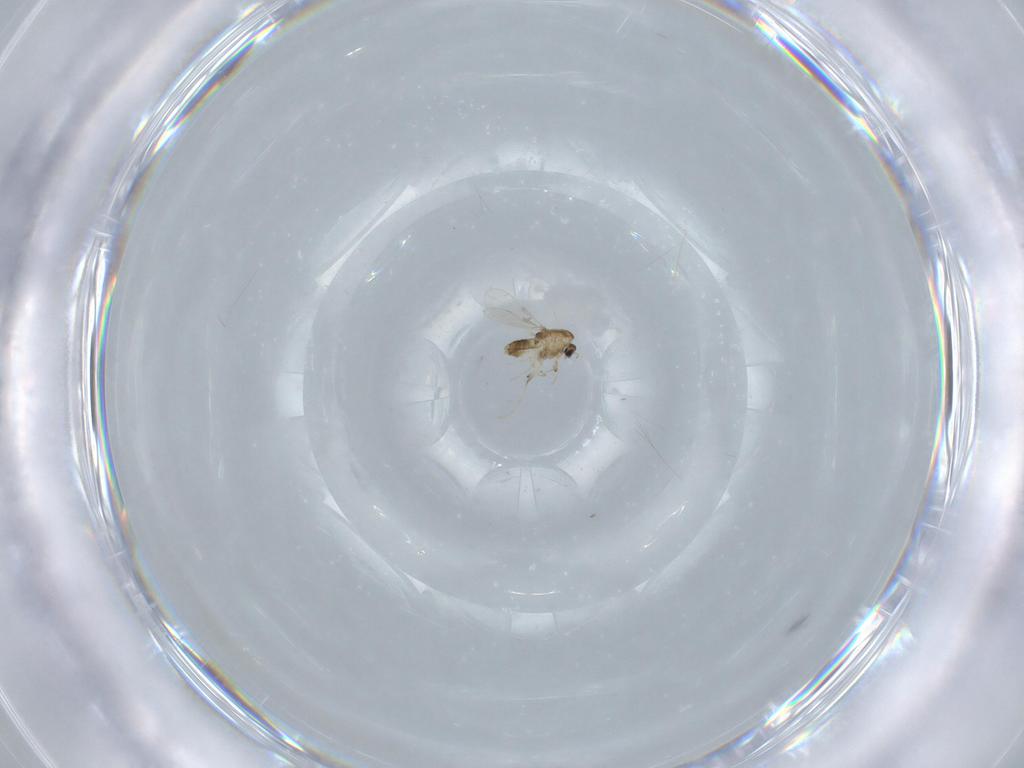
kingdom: Animalia
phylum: Arthropoda
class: Insecta
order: Diptera
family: Chironomidae
